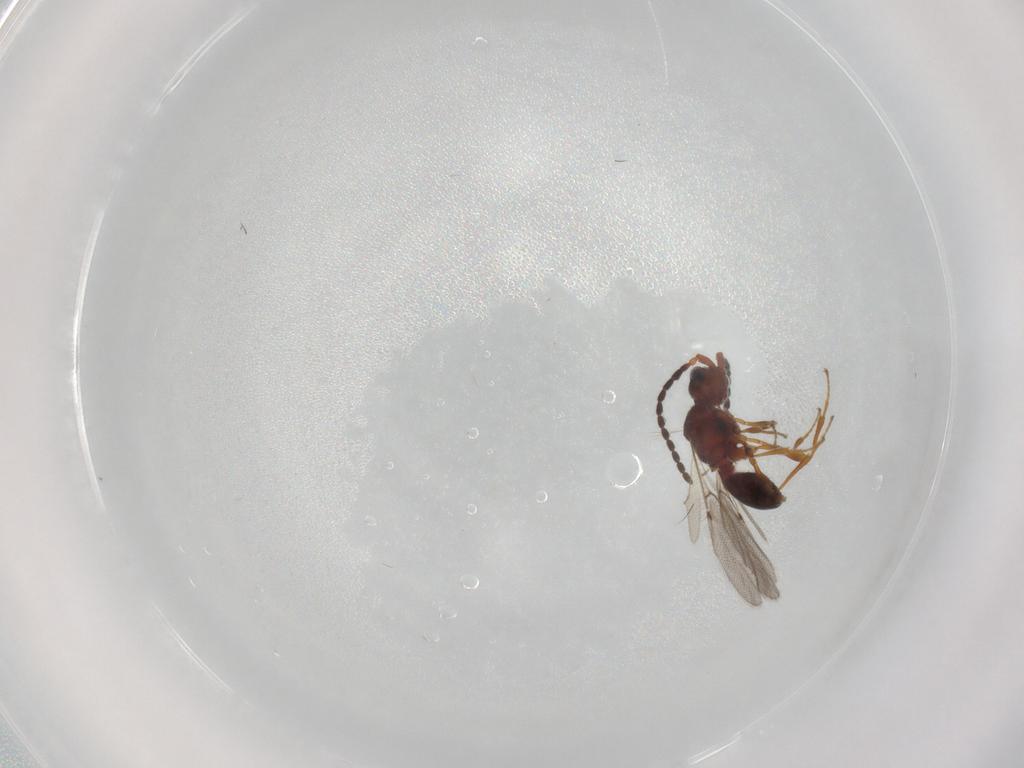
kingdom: Animalia
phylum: Arthropoda
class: Insecta
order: Hymenoptera
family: Diapriidae
